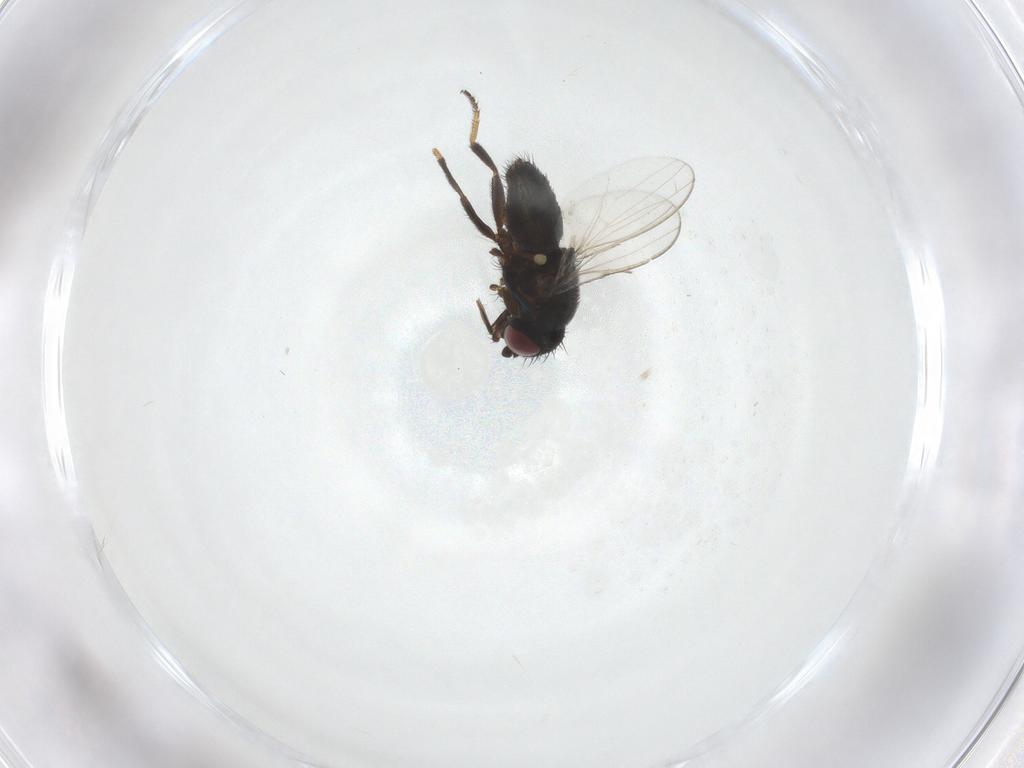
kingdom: Animalia
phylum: Arthropoda
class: Insecta
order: Diptera
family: Milichiidae
